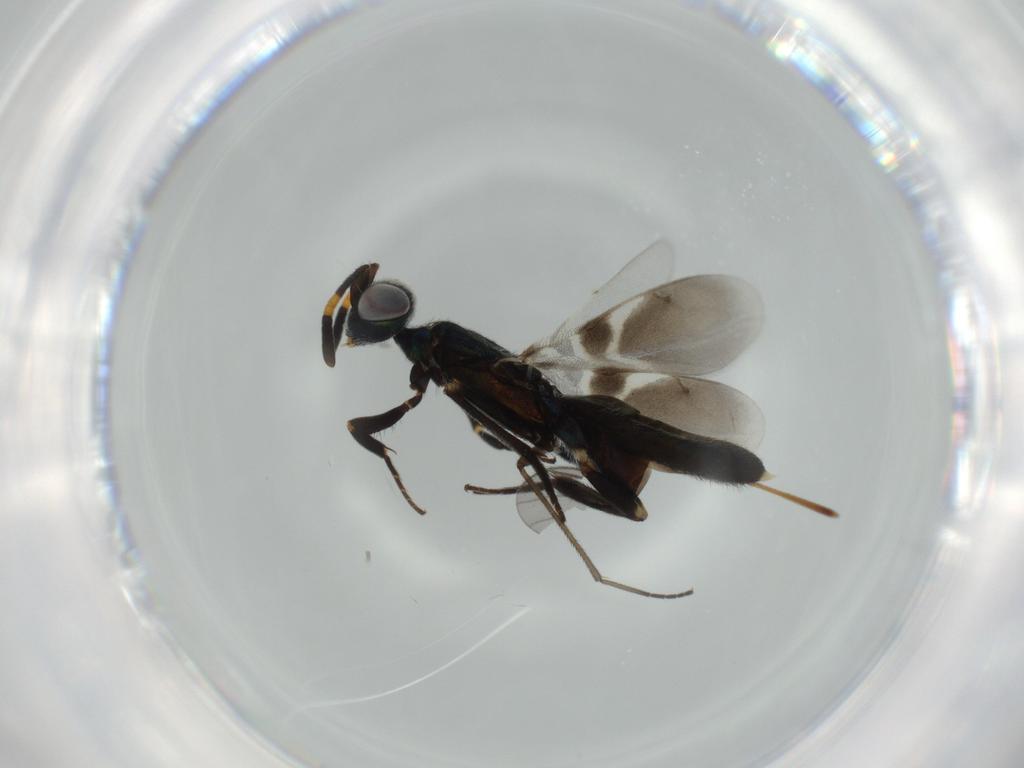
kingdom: Animalia
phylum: Arthropoda
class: Insecta
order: Hymenoptera
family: Eupelmidae
